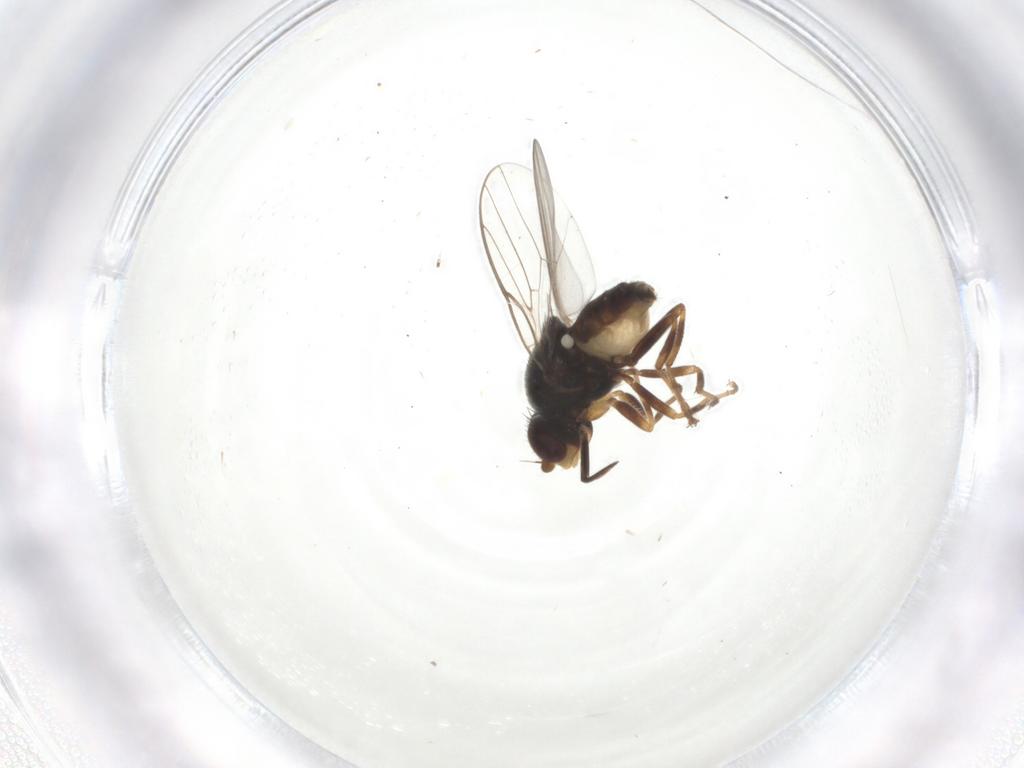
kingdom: Animalia
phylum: Arthropoda
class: Insecta
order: Diptera
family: Chloropidae
